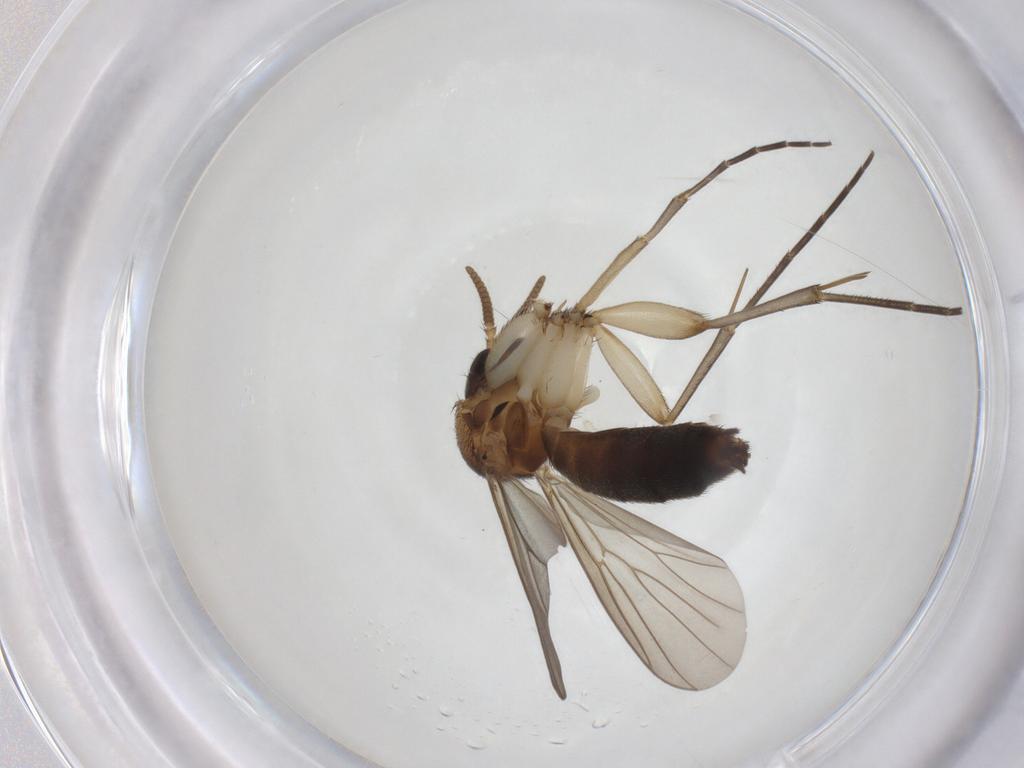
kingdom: Animalia
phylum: Arthropoda
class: Insecta
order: Diptera
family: Mycetophilidae
